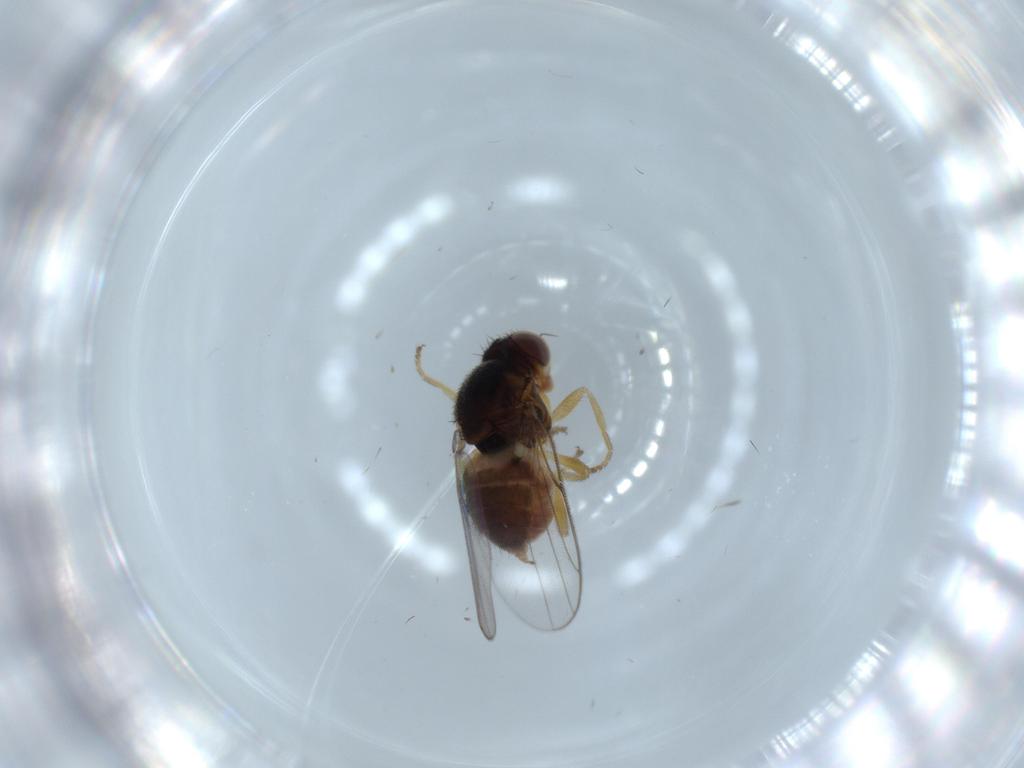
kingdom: Animalia
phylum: Arthropoda
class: Insecta
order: Diptera
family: Chloropidae
